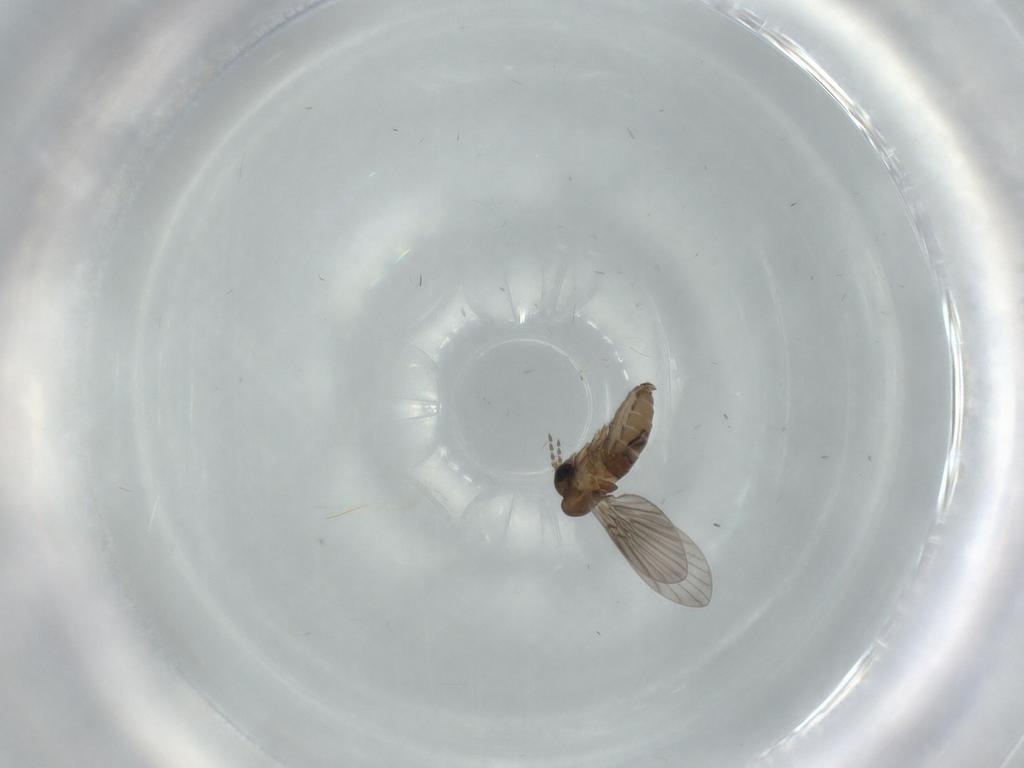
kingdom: Animalia
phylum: Arthropoda
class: Insecta
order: Diptera
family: Psychodidae
